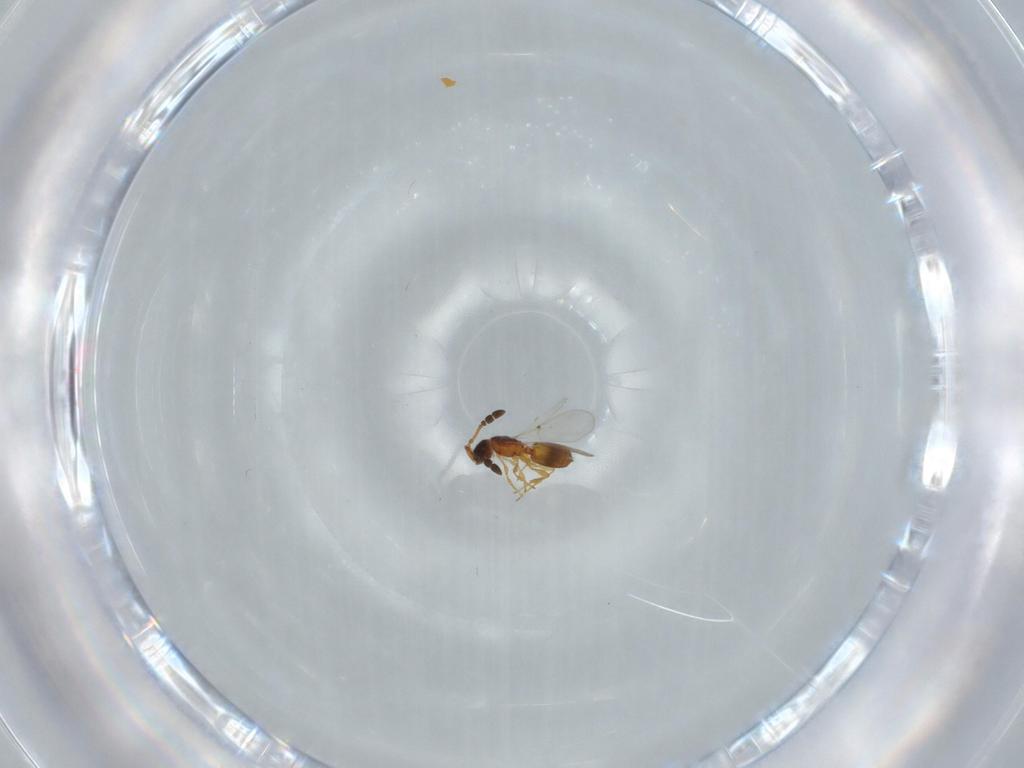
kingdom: Animalia
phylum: Arthropoda
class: Insecta
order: Hymenoptera
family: Diapriidae
